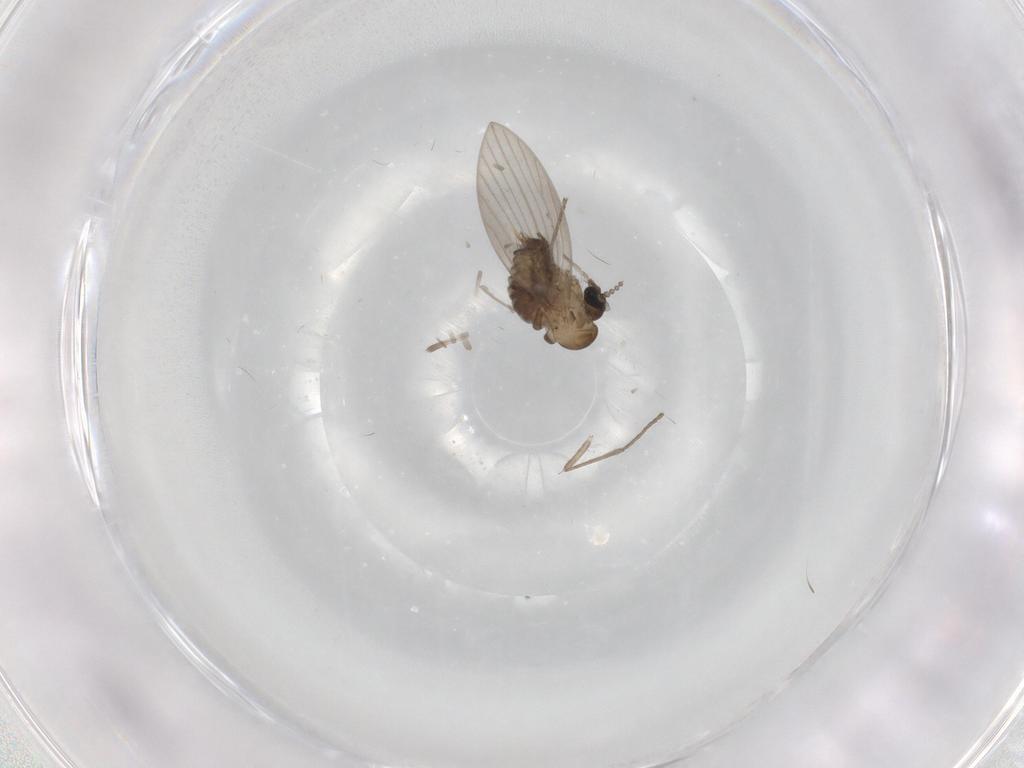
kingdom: Animalia
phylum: Arthropoda
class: Insecta
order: Diptera
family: Psychodidae
